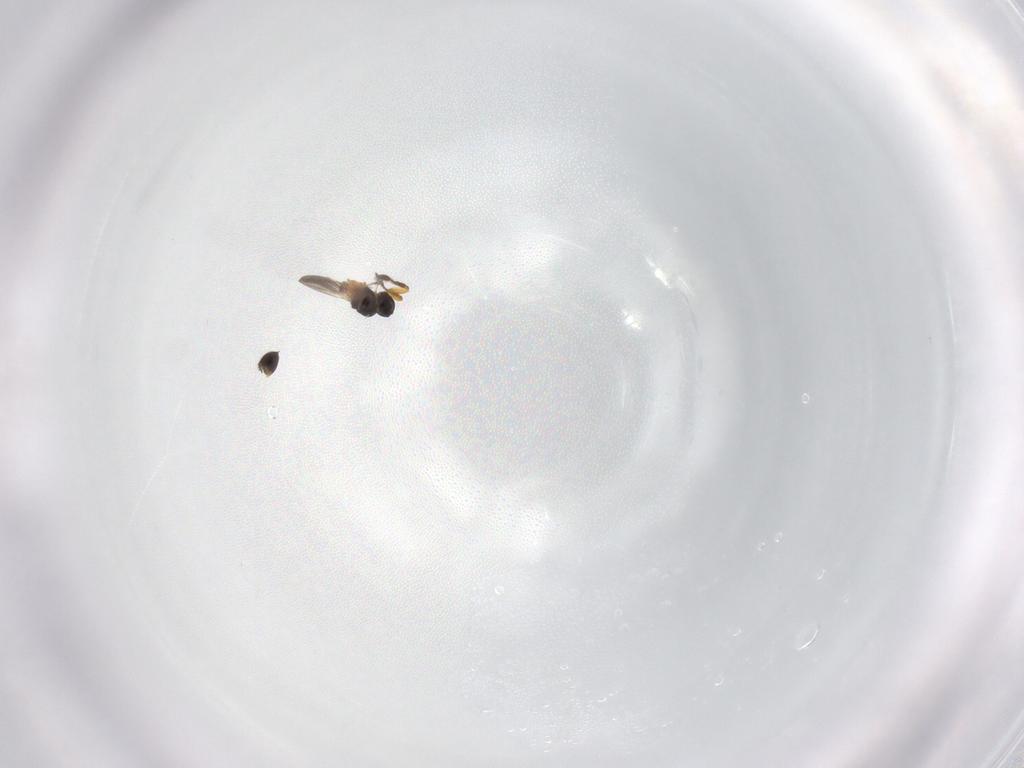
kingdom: Animalia
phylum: Arthropoda
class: Insecta
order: Hymenoptera
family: Platygastridae
